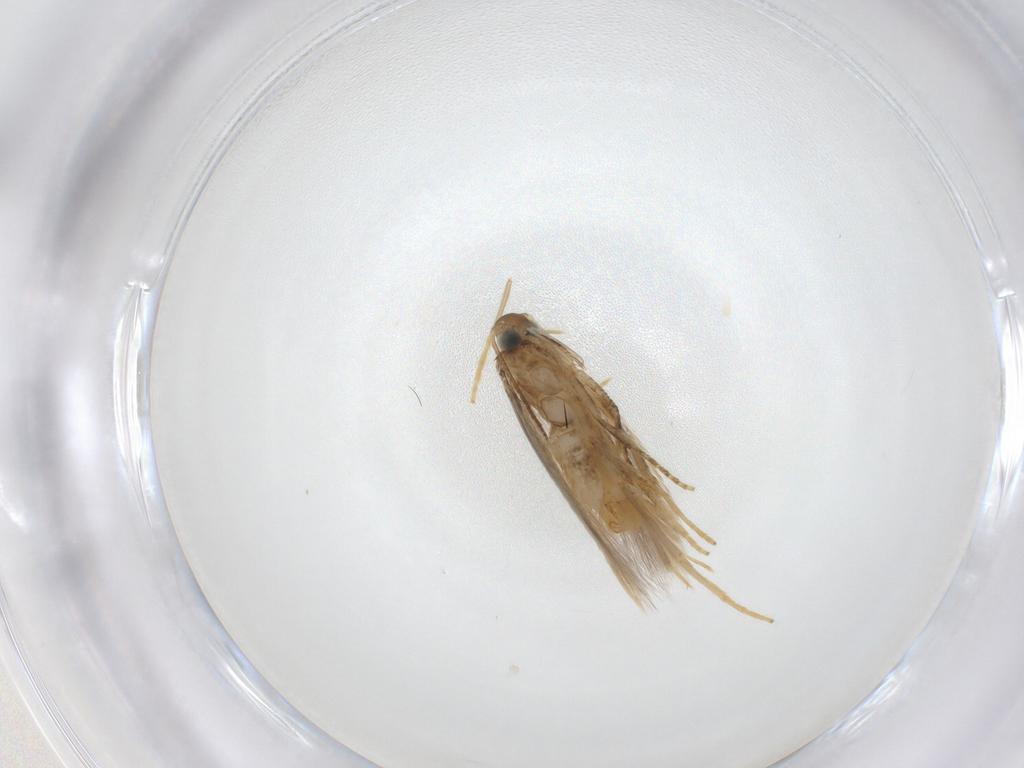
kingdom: Animalia
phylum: Arthropoda
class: Insecta
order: Lepidoptera
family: Tischeriidae
